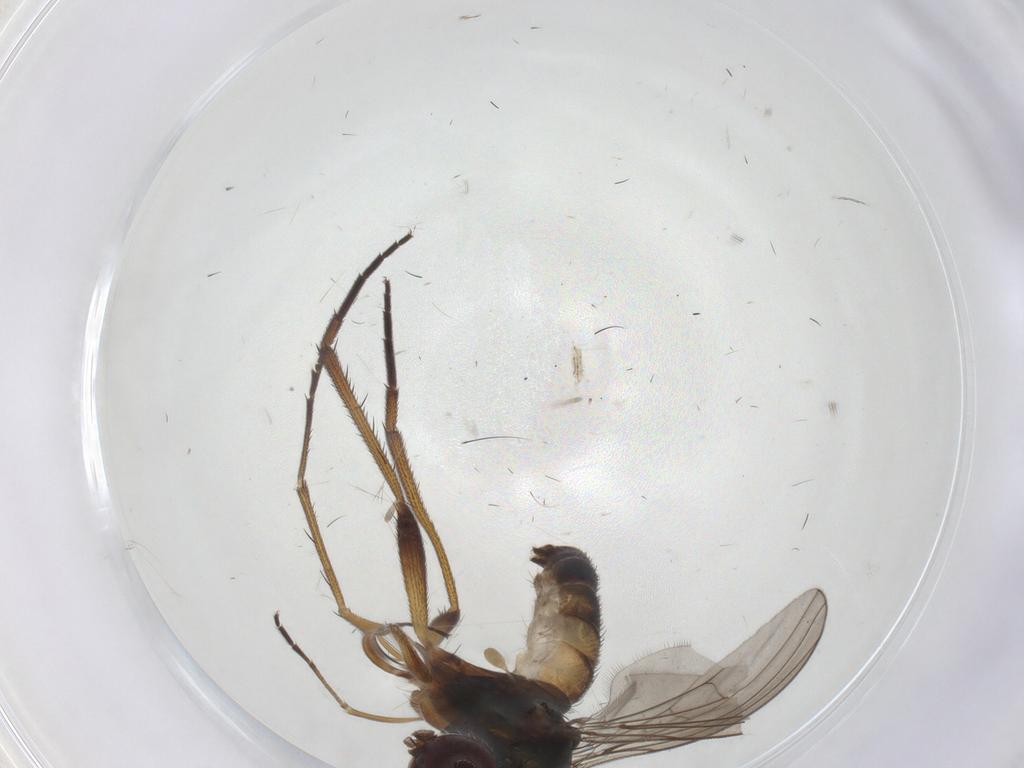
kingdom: Animalia
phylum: Arthropoda
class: Insecta
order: Diptera
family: Dolichopodidae
